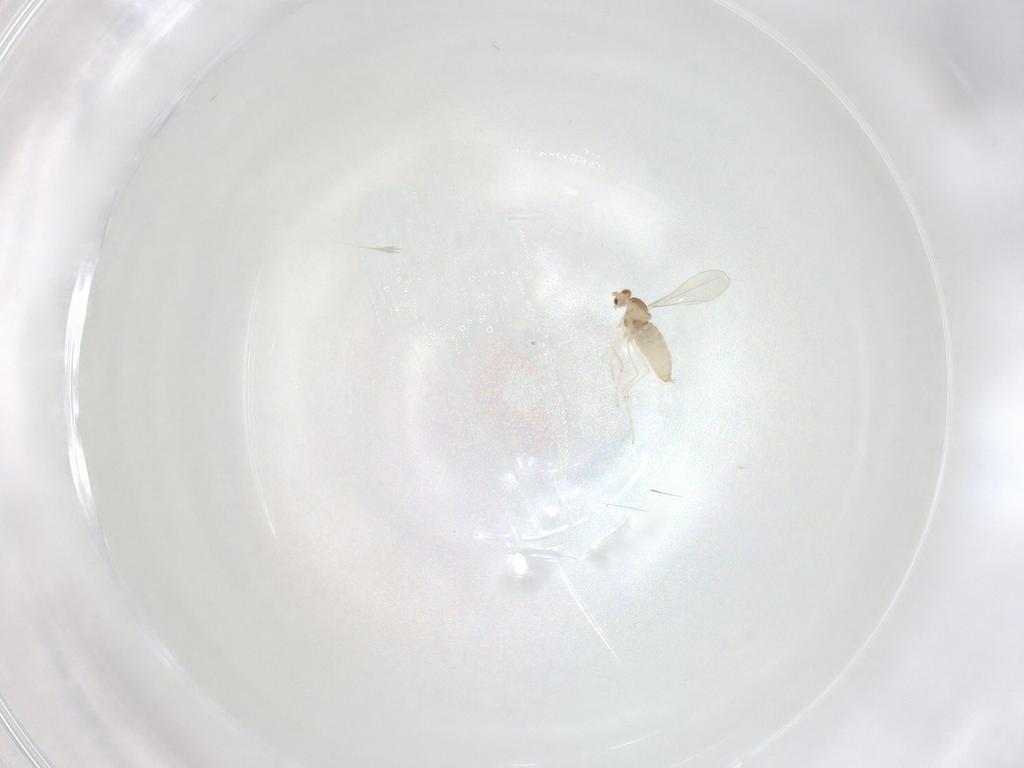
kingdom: Animalia
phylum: Arthropoda
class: Insecta
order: Diptera
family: Cecidomyiidae
